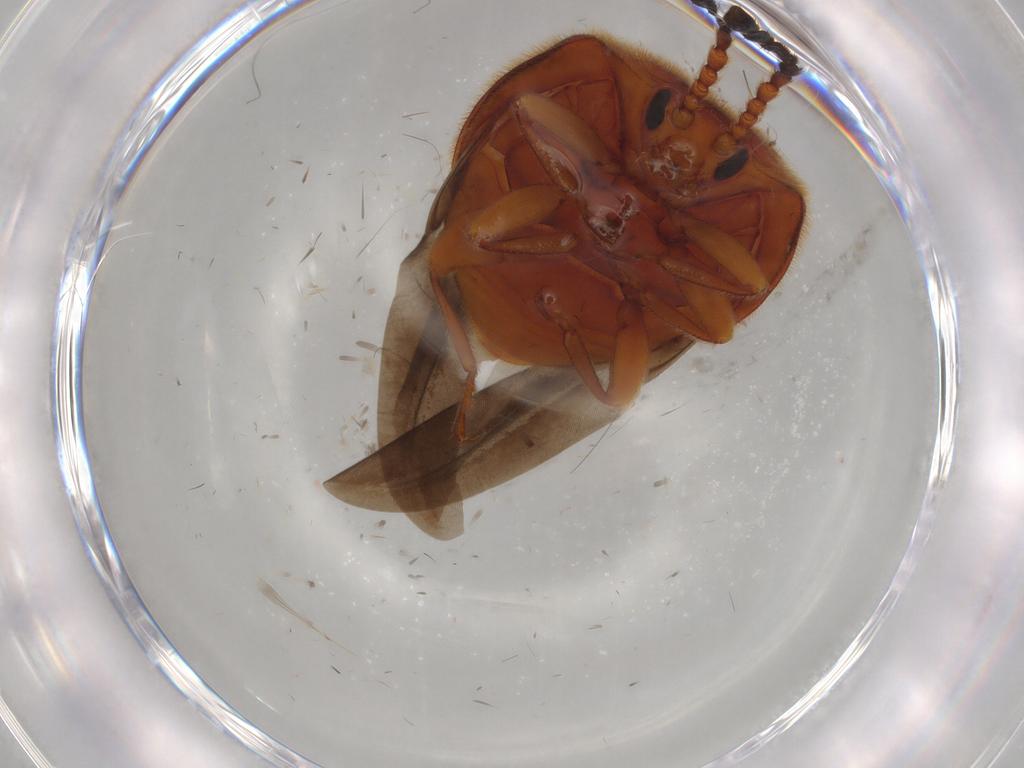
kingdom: Animalia
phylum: Arthropoda
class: Insecta
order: Coleoptera
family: Endomychidae
